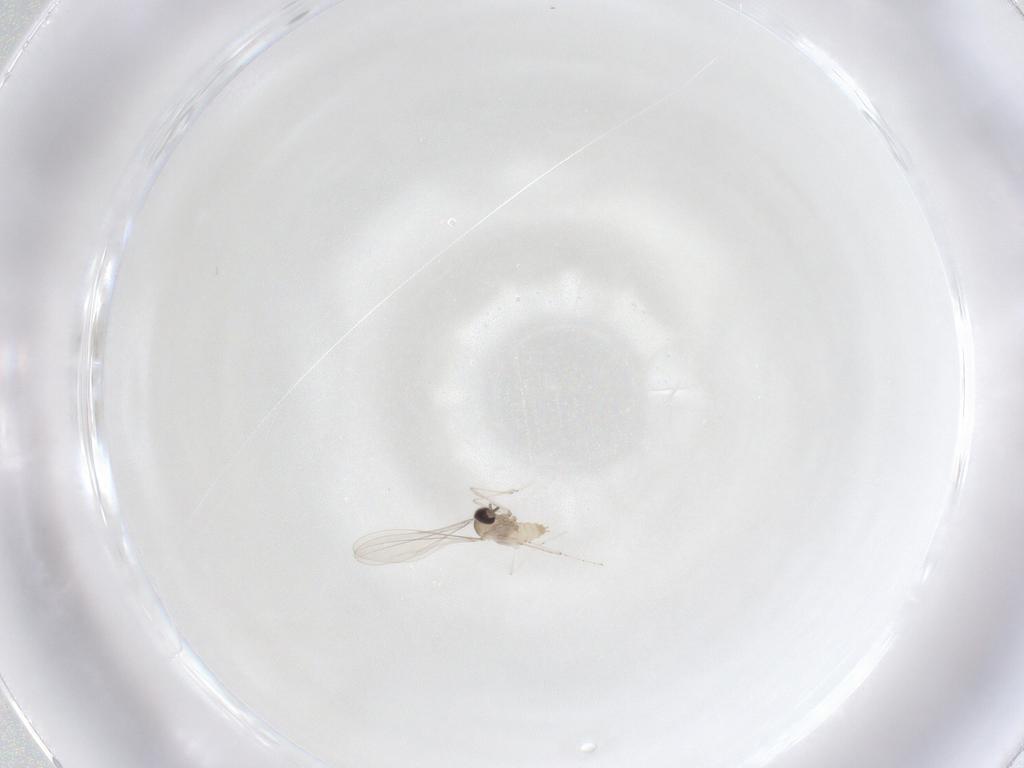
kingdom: Animalia
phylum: Arthropoda
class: Insecta
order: Diptera
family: Cecidomyiidae
